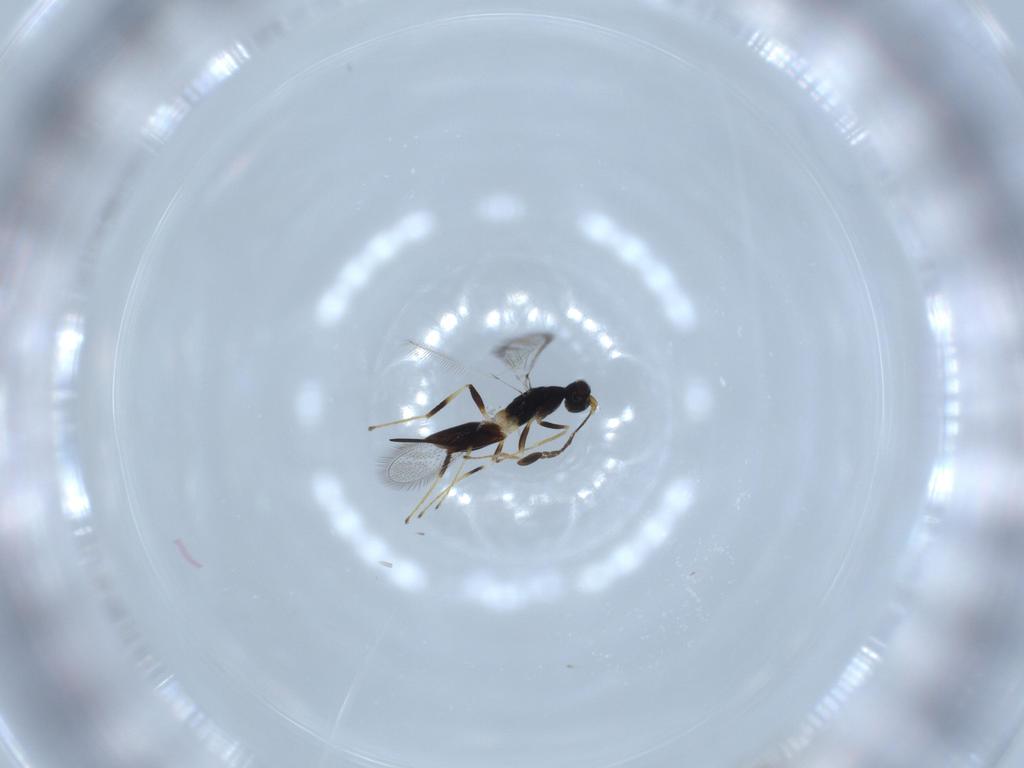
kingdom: Animalia
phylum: Arthropoda
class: Insecta
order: Hymenoptera
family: Mymaridae
